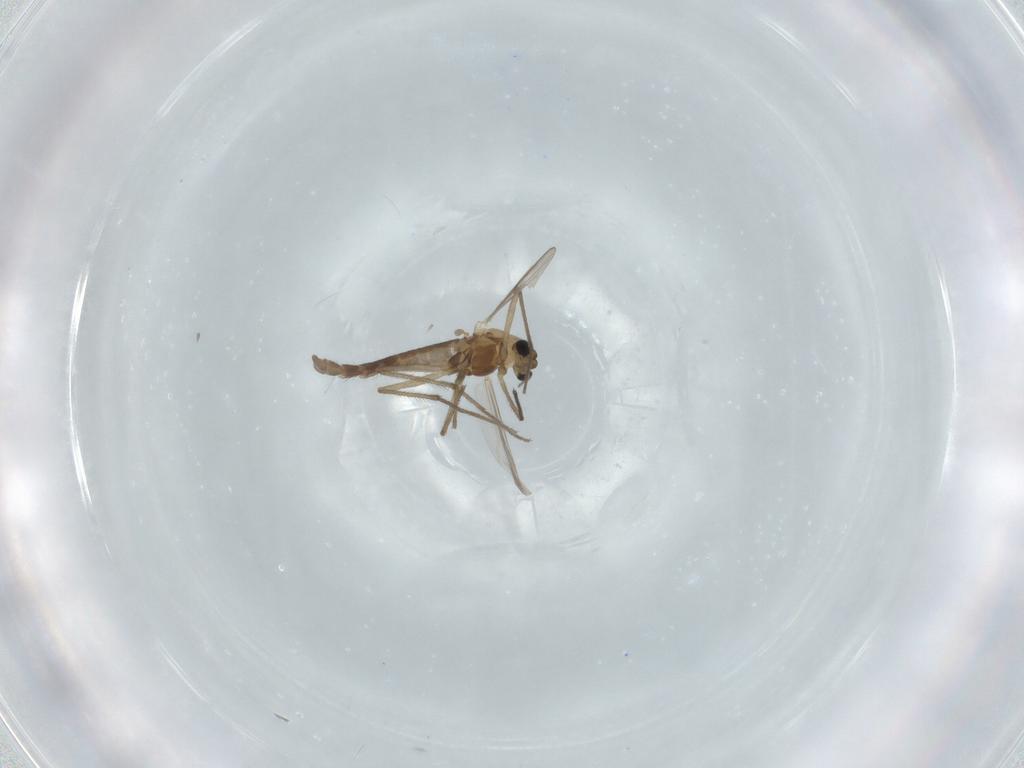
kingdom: Animalia
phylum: Arthropoda
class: Insecta
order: Diptera
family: Chironomidae
